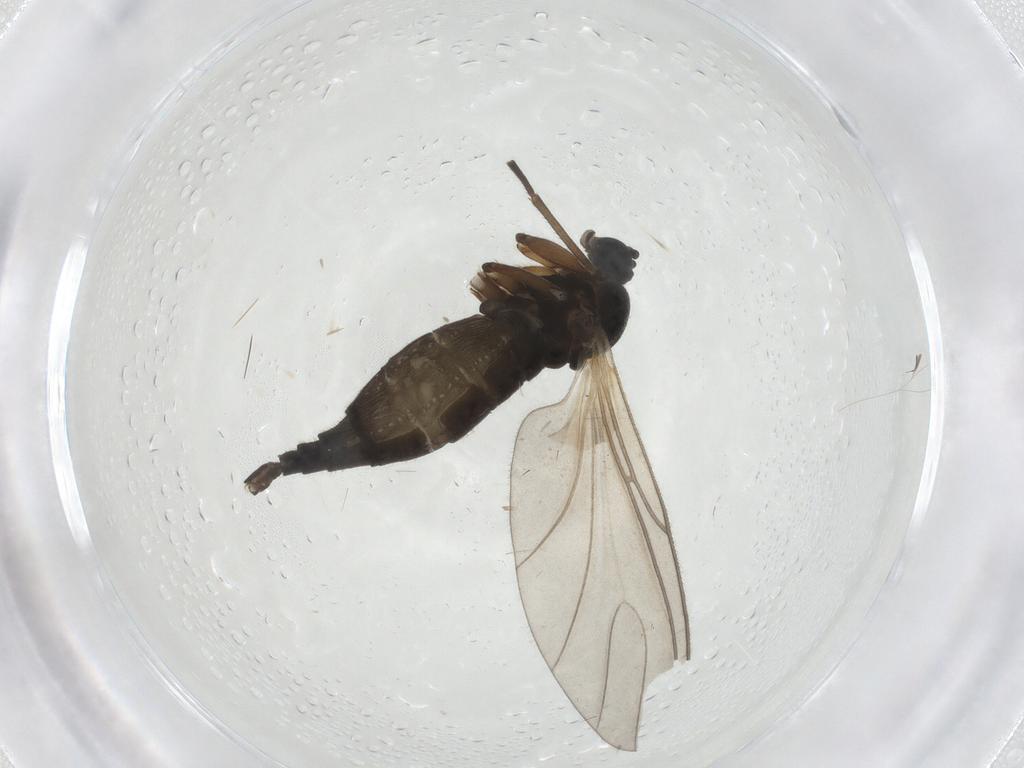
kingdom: Animalia
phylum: Arthropoda
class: Insecta
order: Diptera
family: Sciaridae
